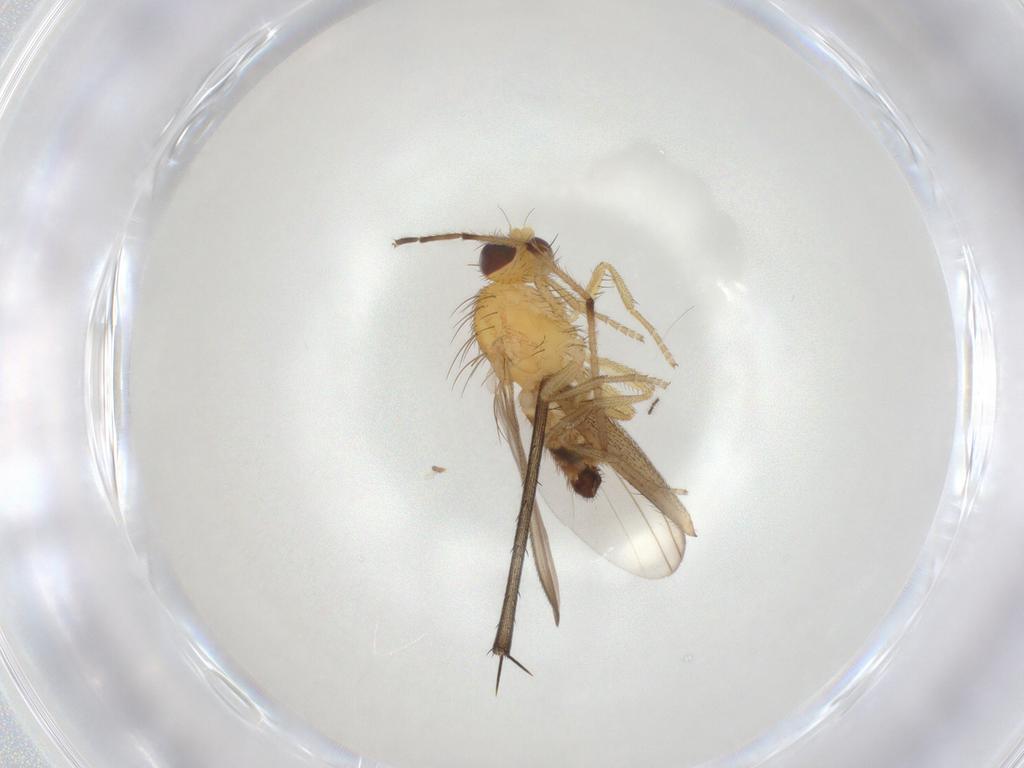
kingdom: Animalia
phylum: Arthropoda
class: Insecta
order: Diptera
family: Natalimyzidae
